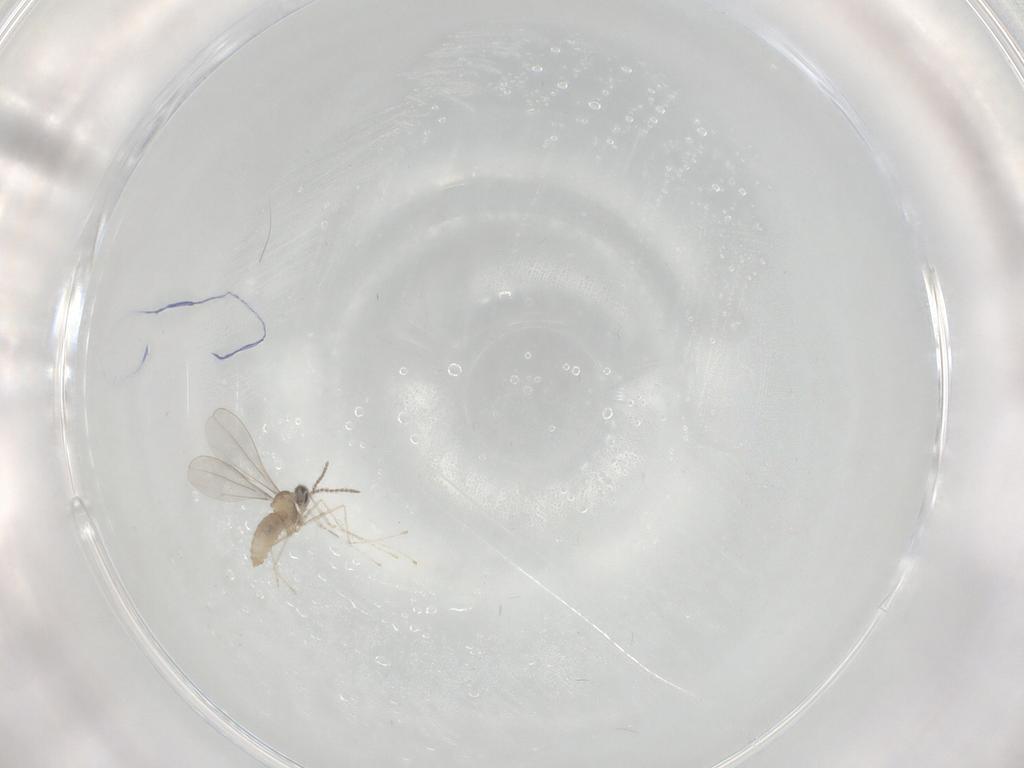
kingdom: Animalia
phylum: Arthropoda
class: Insecta
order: Diptera
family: Cecidomyiidae
